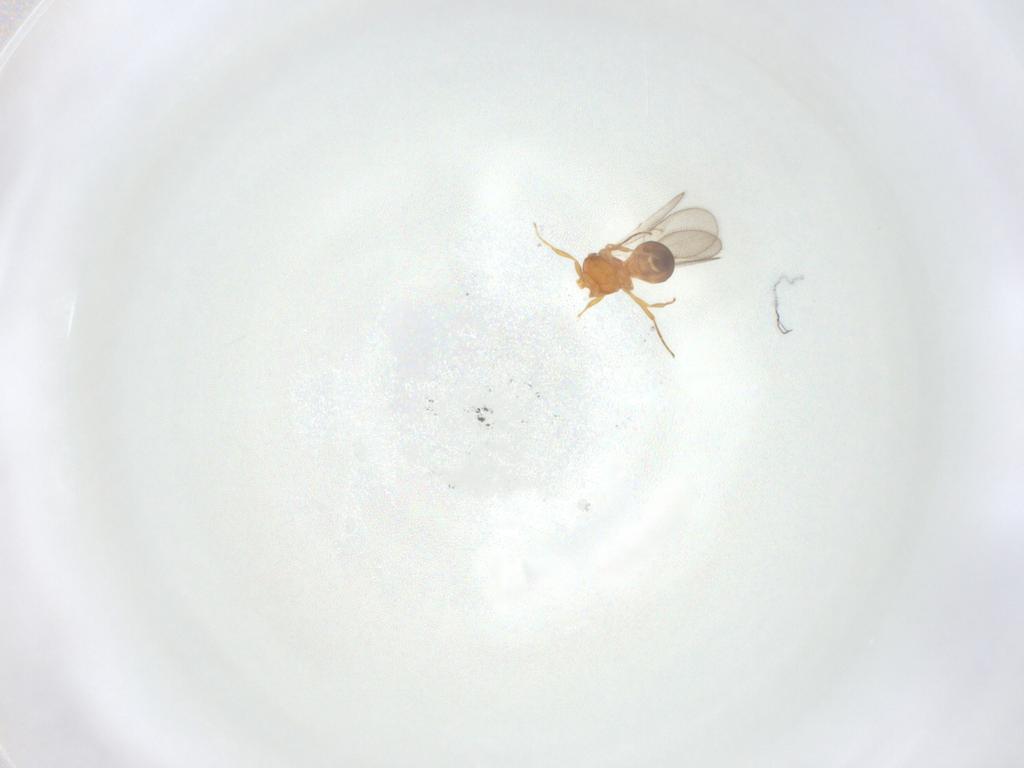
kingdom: Animalia
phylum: Arthropoda
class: Insecta
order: Hymenoptera
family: Scelionidae
